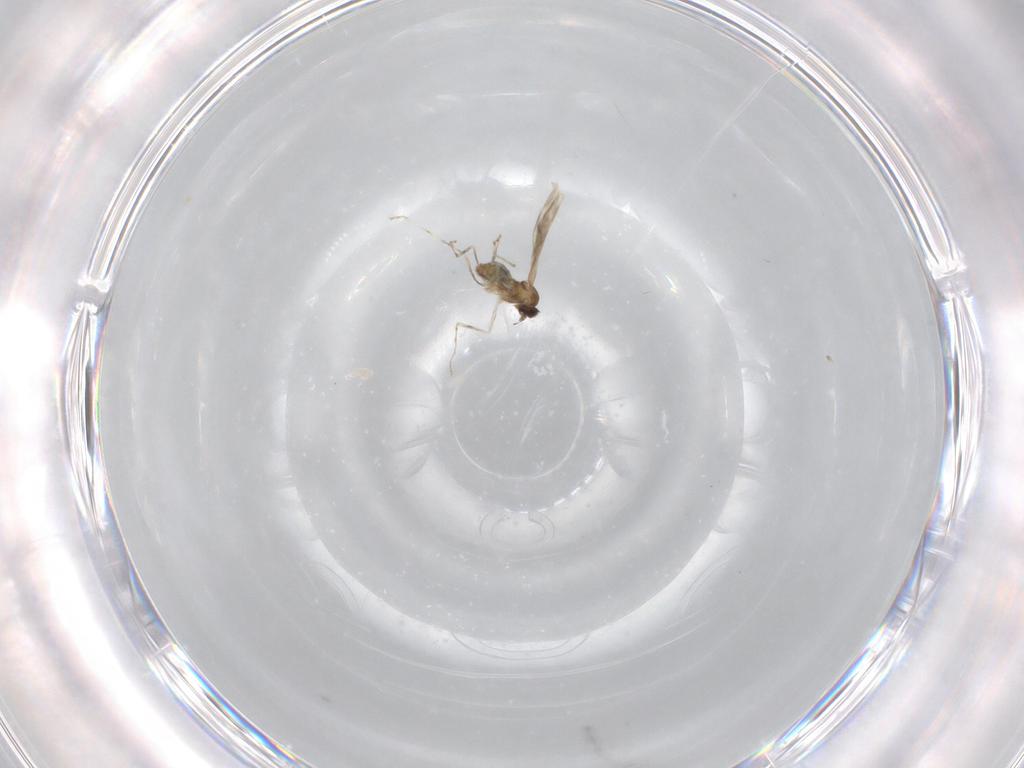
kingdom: Animalia
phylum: Arthropoda
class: Insecta
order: Diptera
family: Cecidomyiidae
